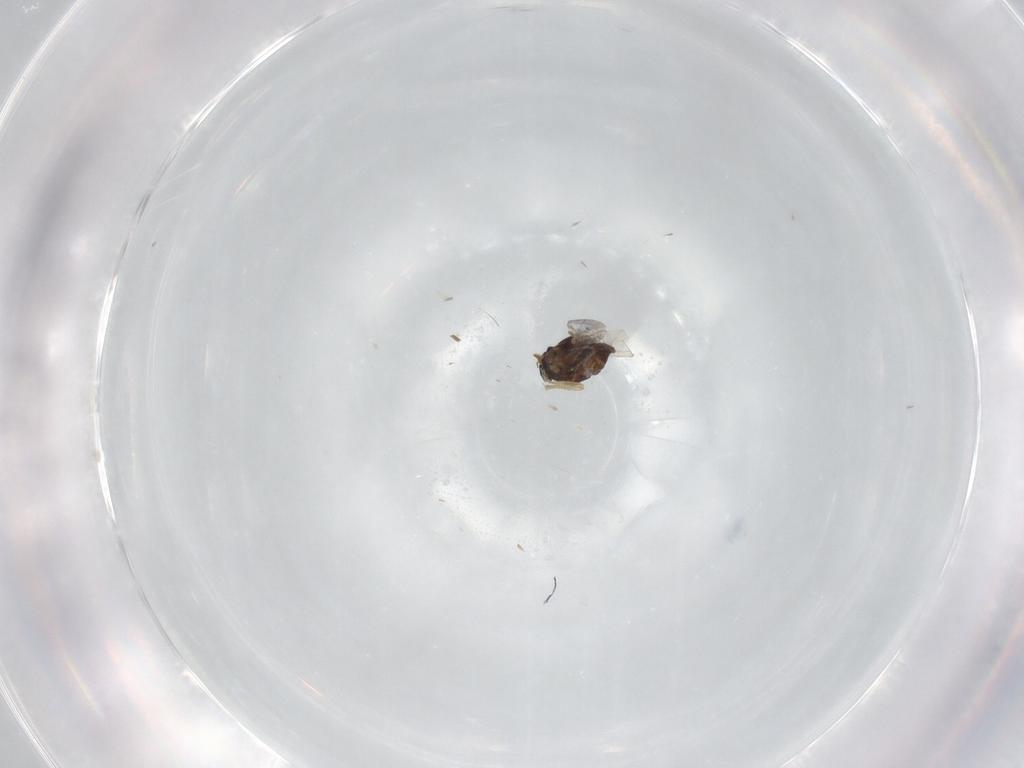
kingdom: Animalia
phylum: Arthropoda
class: Insecta
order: Diptera
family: Ceratopogonidae
